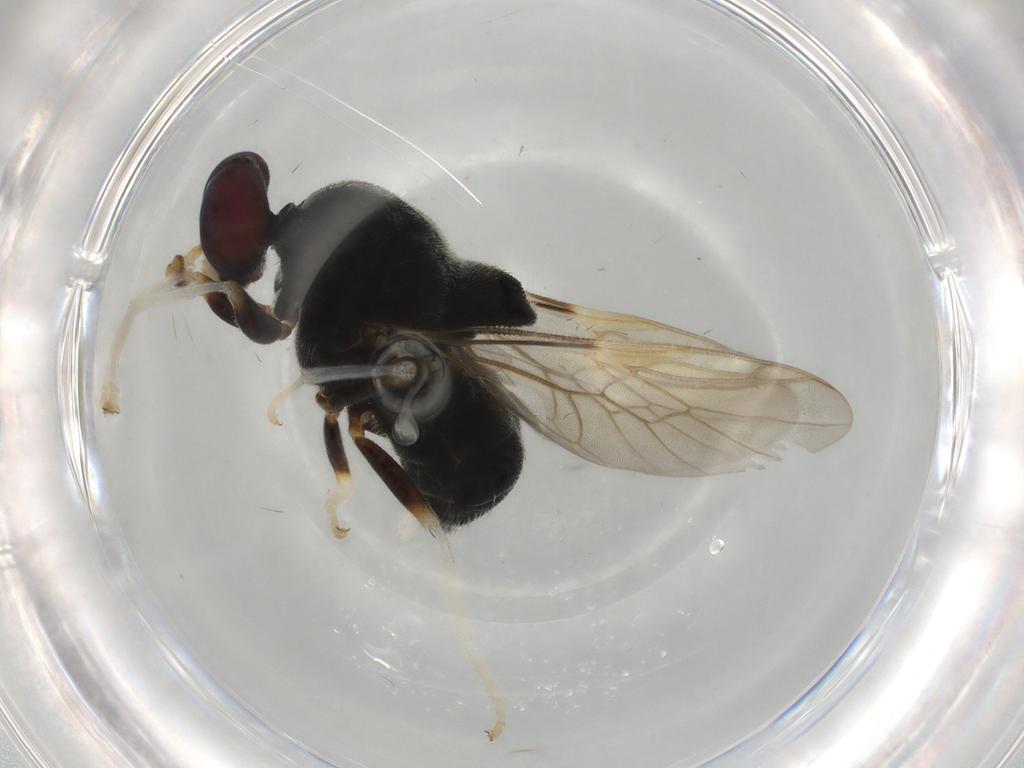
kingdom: Animalia
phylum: Arthropoda
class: Insecta
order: Diptera
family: Stratiomyidae
